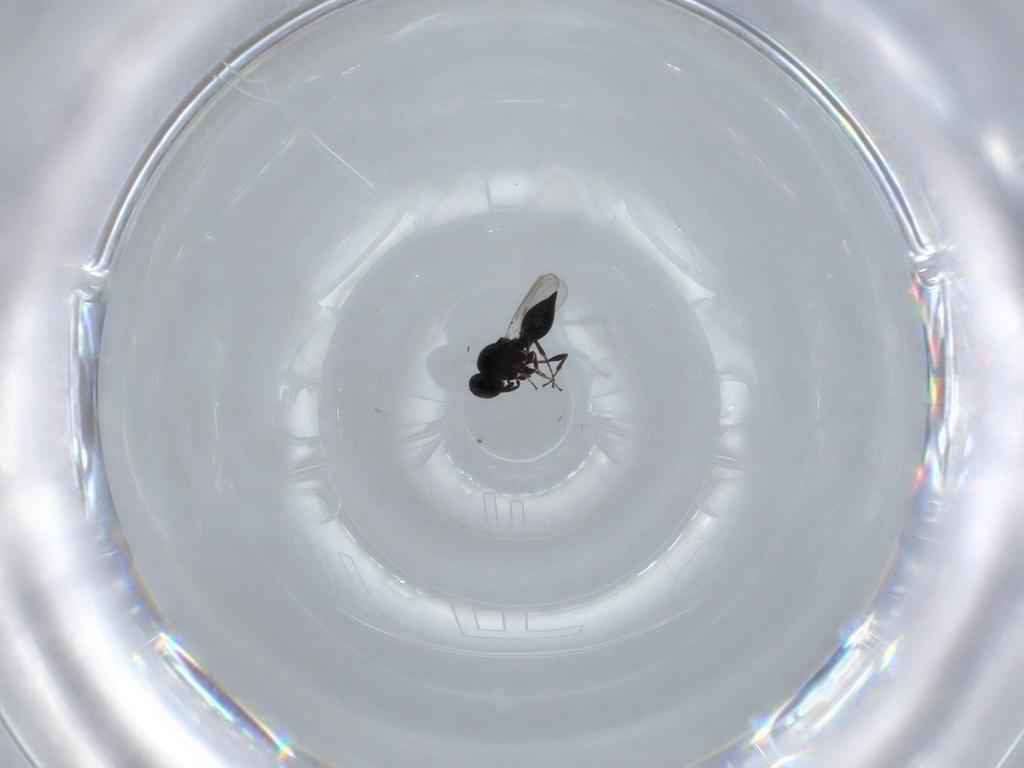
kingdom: Animalia
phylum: Arthropoda
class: Insecta
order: Hymenoptera
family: Platygastridae
